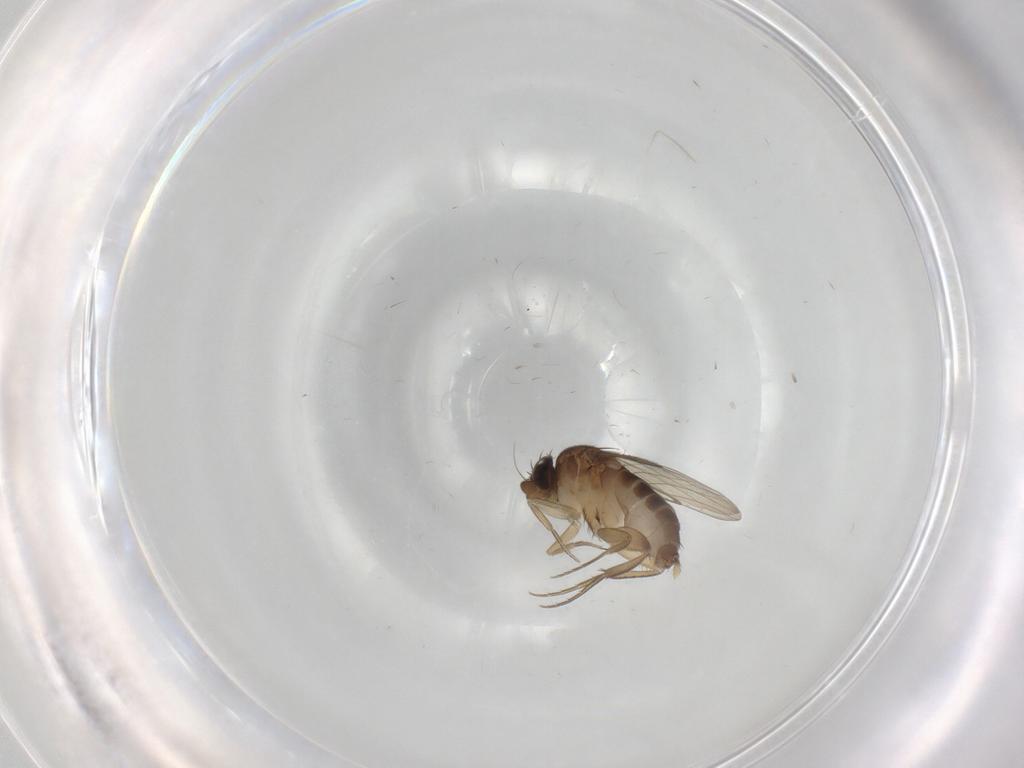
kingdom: Animalia
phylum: Arthropoda
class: Insecta
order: Diptera
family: Phoridae
